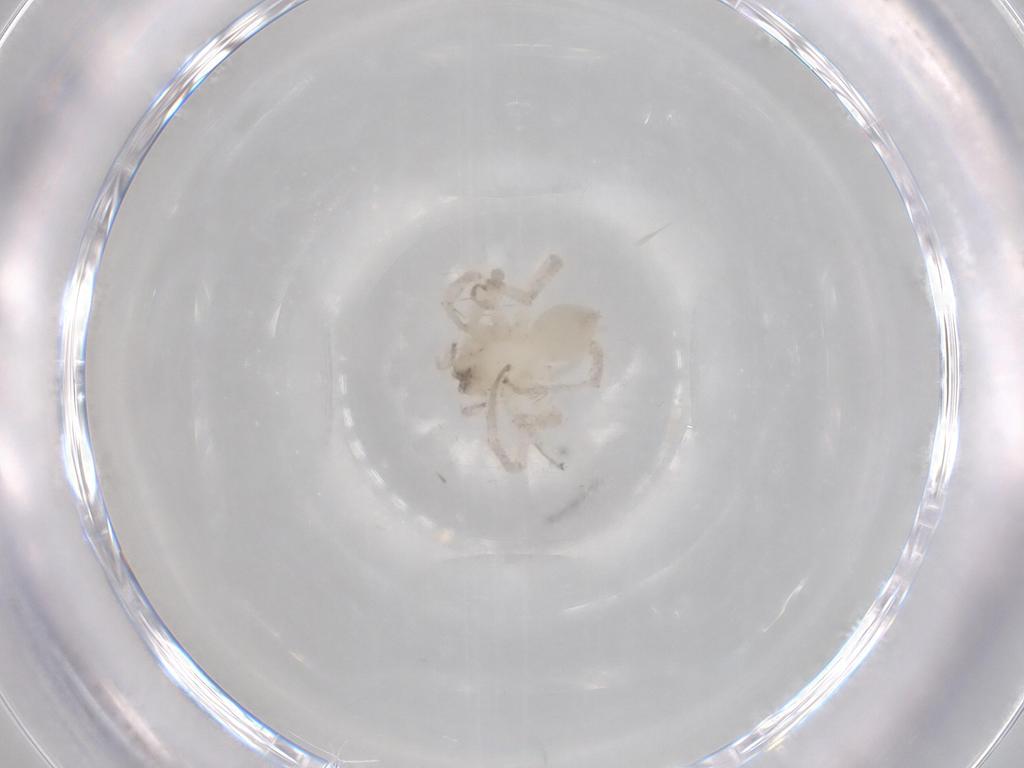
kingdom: Animalia
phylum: Arthropoda
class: Arachnida
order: Araneae
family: Anyphaenidae
